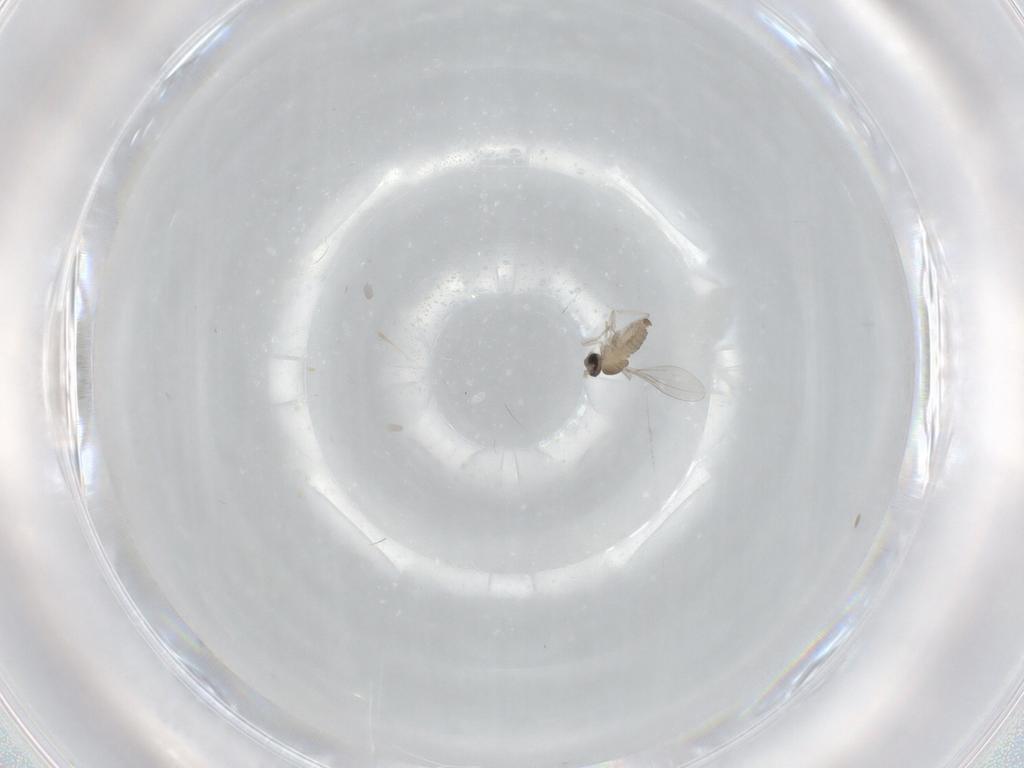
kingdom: Animalia
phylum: Arthropoda
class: Insecta
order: Diptera
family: Cecidomyiidae
